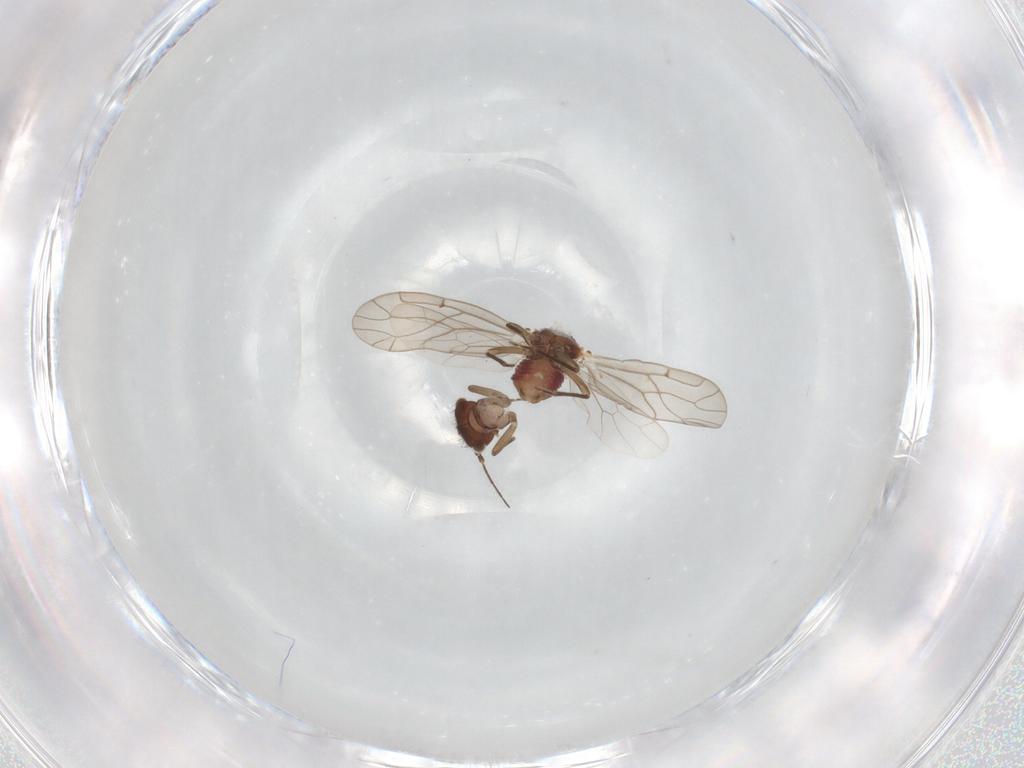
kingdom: Animalia
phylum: Arthropoda
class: Insecta
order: Psocodea
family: Ectopsocidae
